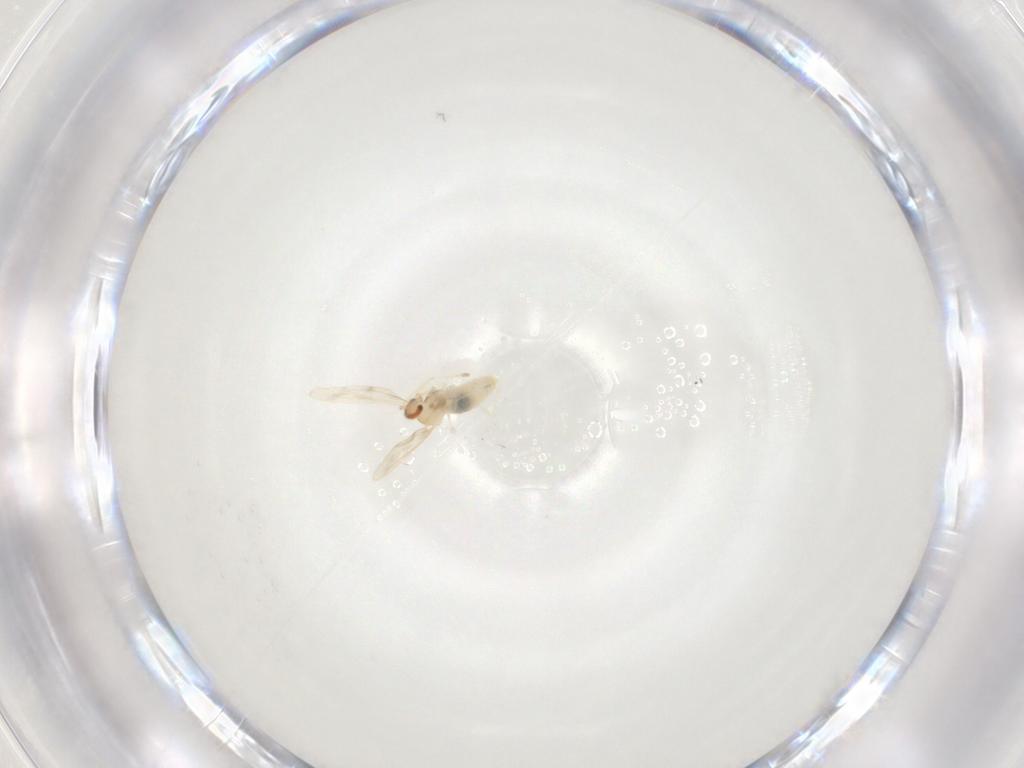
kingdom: Animalia
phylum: Arthropoda
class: Insecta
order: Diptera
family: Cecidomyiidae
